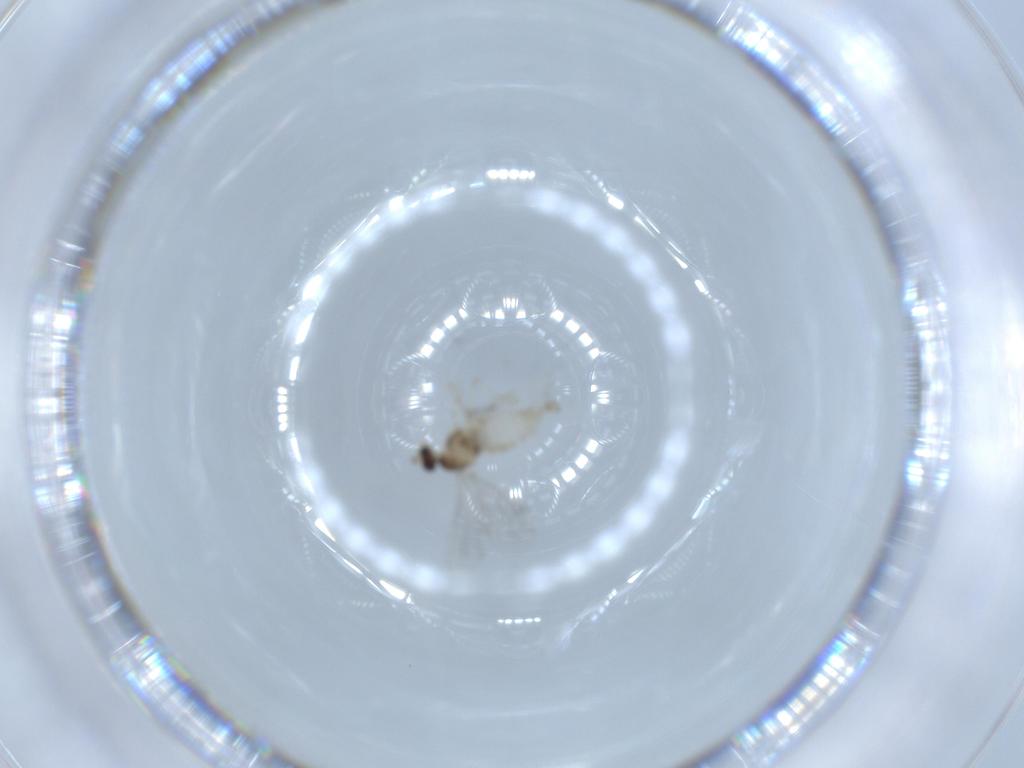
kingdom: Animalia
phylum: Arthropoda
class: Insecta
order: Diptera
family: Cecidomyiidae
